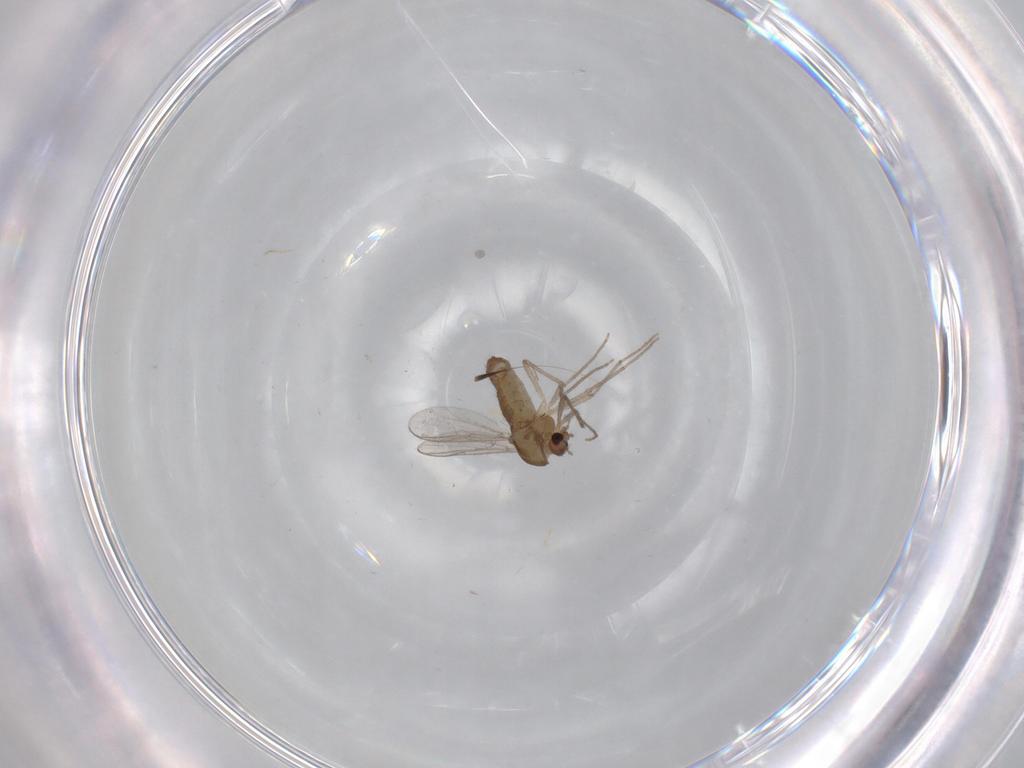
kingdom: Animalia
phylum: Arthropoda
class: Insecta
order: Diptera
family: Chironomidae
